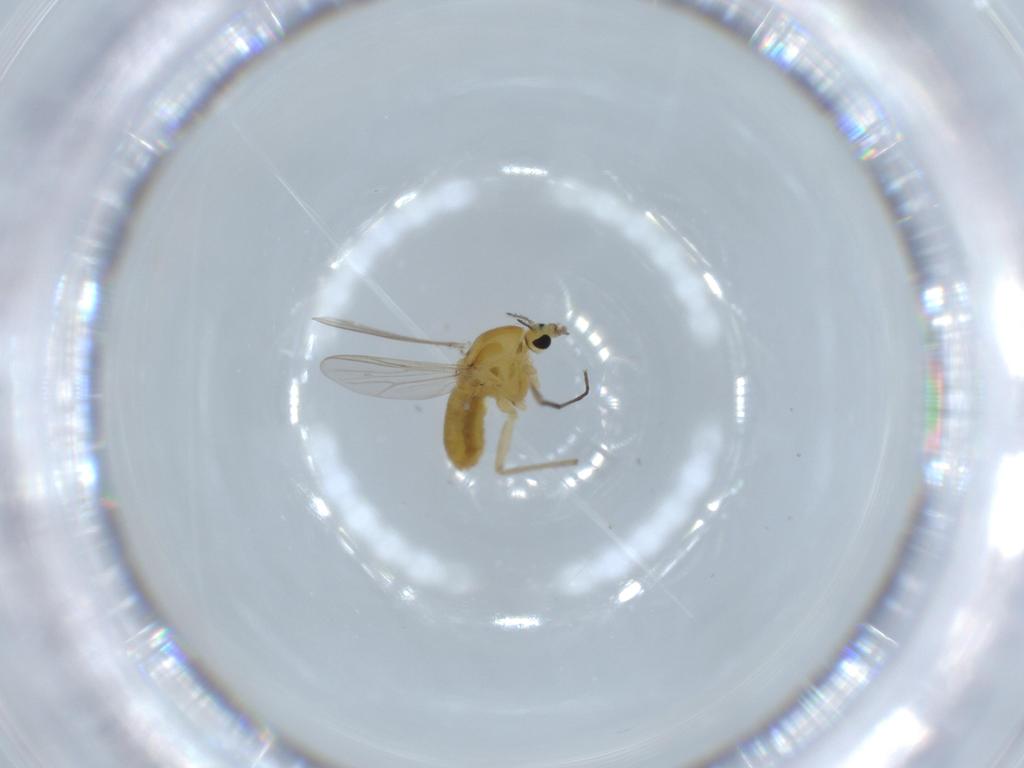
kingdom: Animalia
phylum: Arthropoda
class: Insecta
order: Diptera
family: Chironomidae
